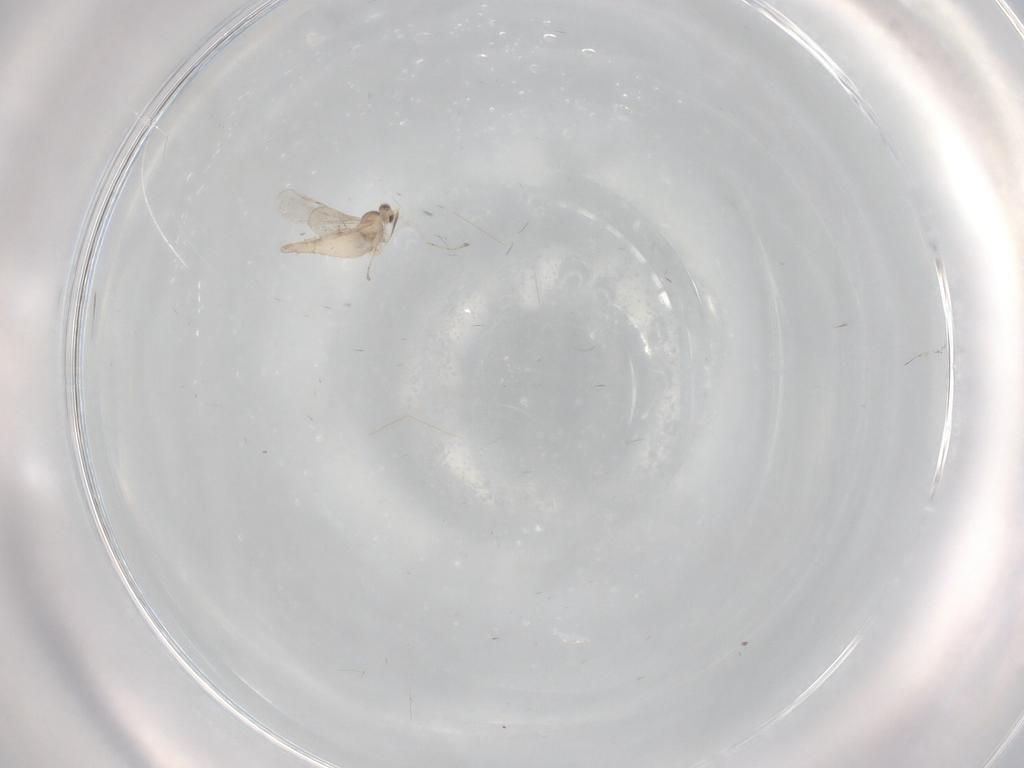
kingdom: Animalia
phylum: Arthropoda
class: Insecta
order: Diptera
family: Cecidomyiidae
